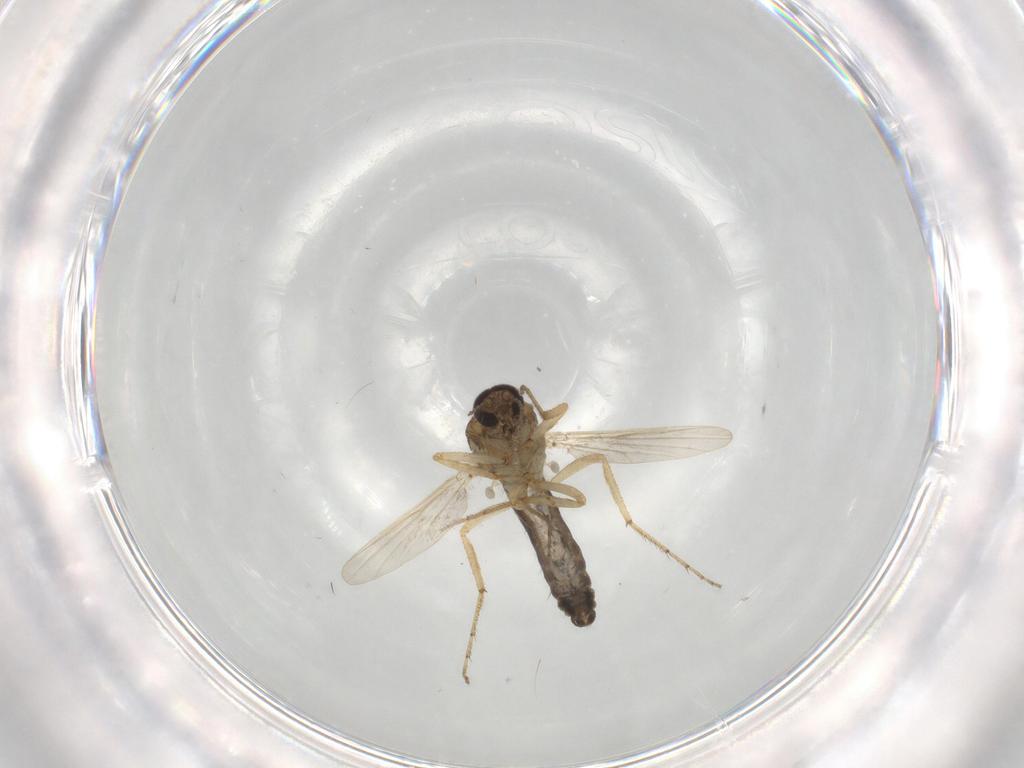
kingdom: Animalia
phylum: Arthropoda
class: Insecta
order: Diptera
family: Ceratopogonidae
